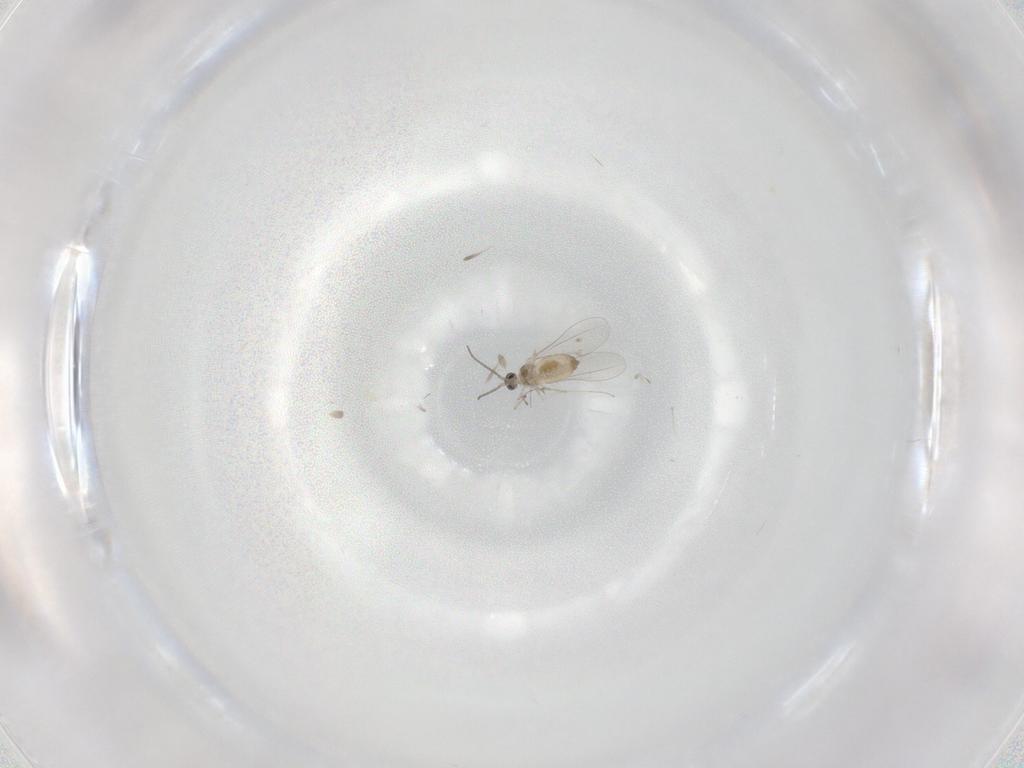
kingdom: Animalia
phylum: Arthropoda
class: Insecta
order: Diptera
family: Cecidomyiidae
